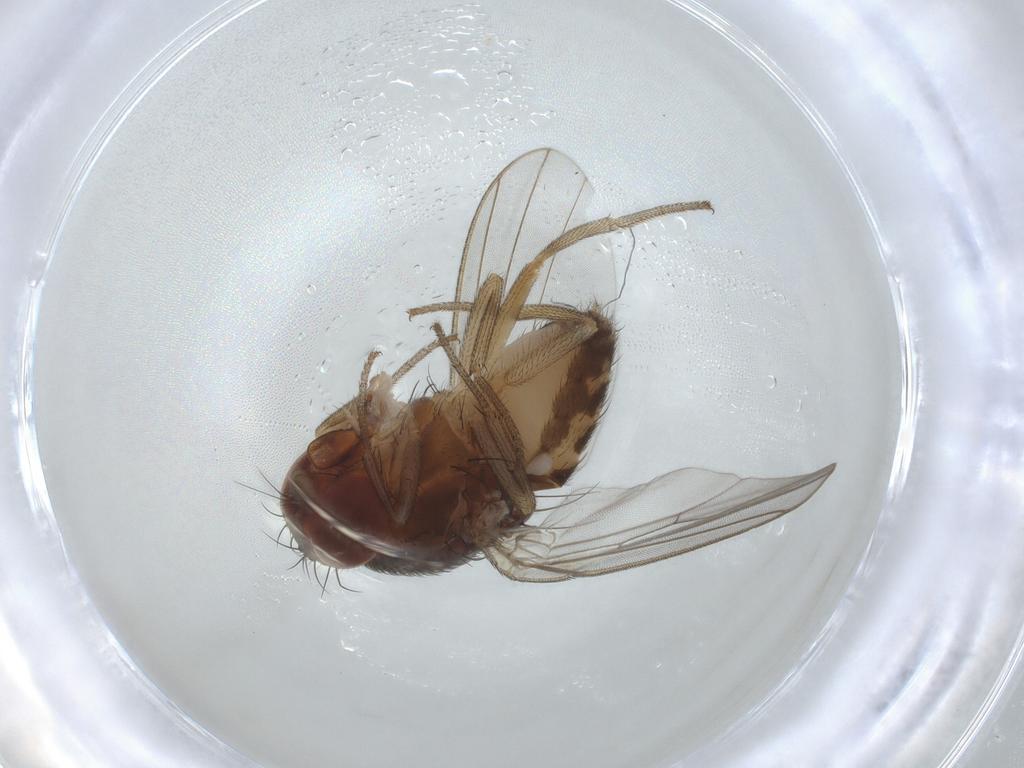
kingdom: Animalia
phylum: Arthropoda
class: Insecta
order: Diptera
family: Drosophilidae
